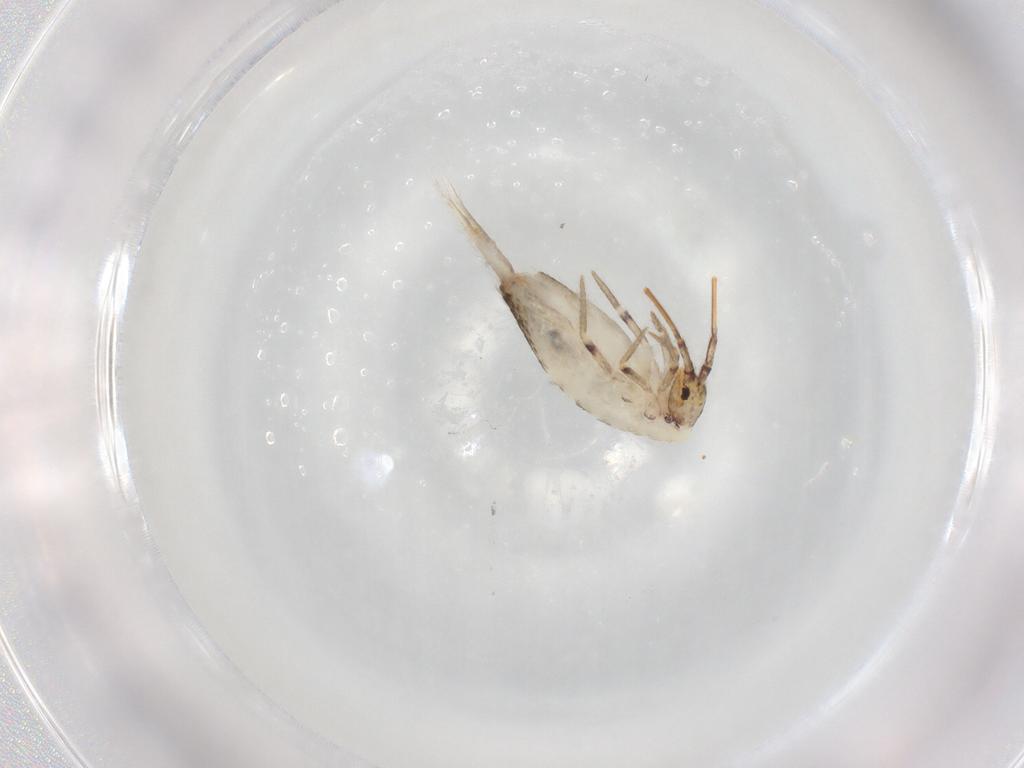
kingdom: Animalia
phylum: Arthropoda
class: Collembola
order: Entomobryomorpha
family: Entomobryidae
